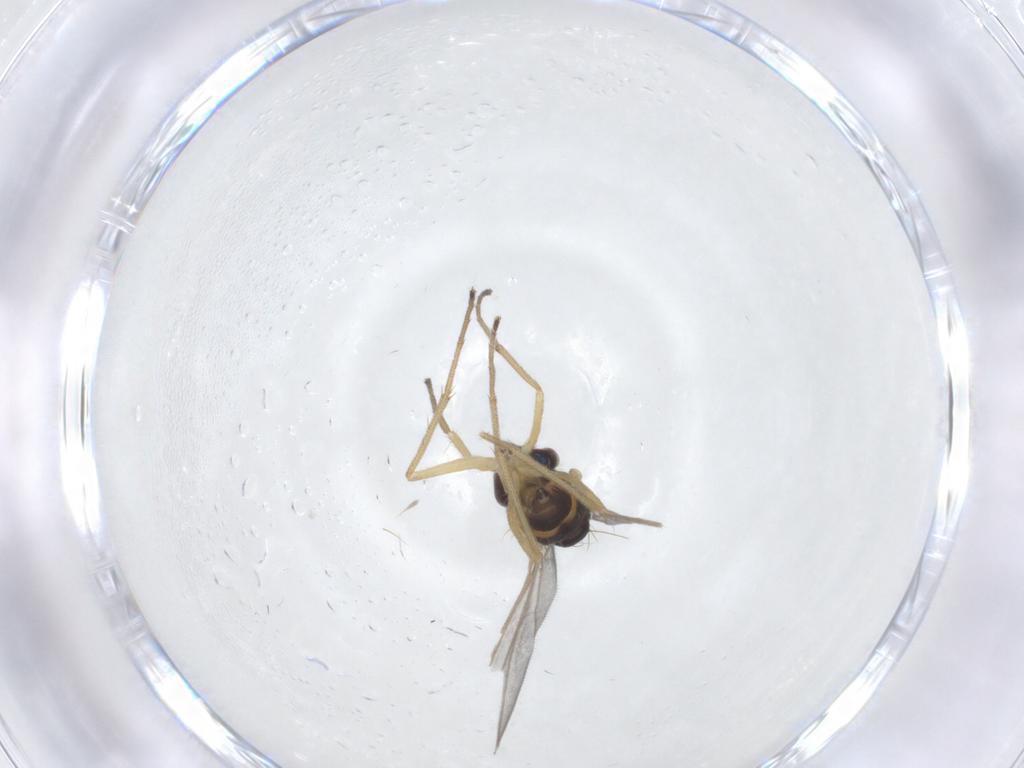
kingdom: Animalia
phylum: Arthropoda
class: Insecta
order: Diptera
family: Dolichopodidae
